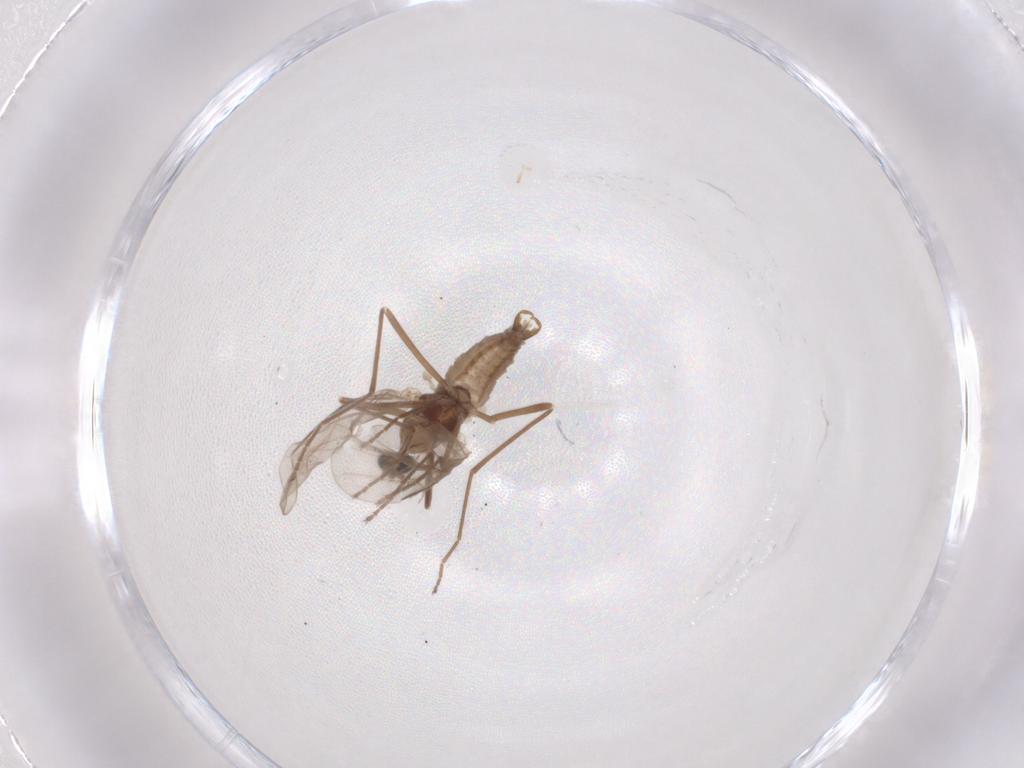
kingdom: Animalia
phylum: Arthropoda
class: Insecta
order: Diptera
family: Cecidomyiidae
